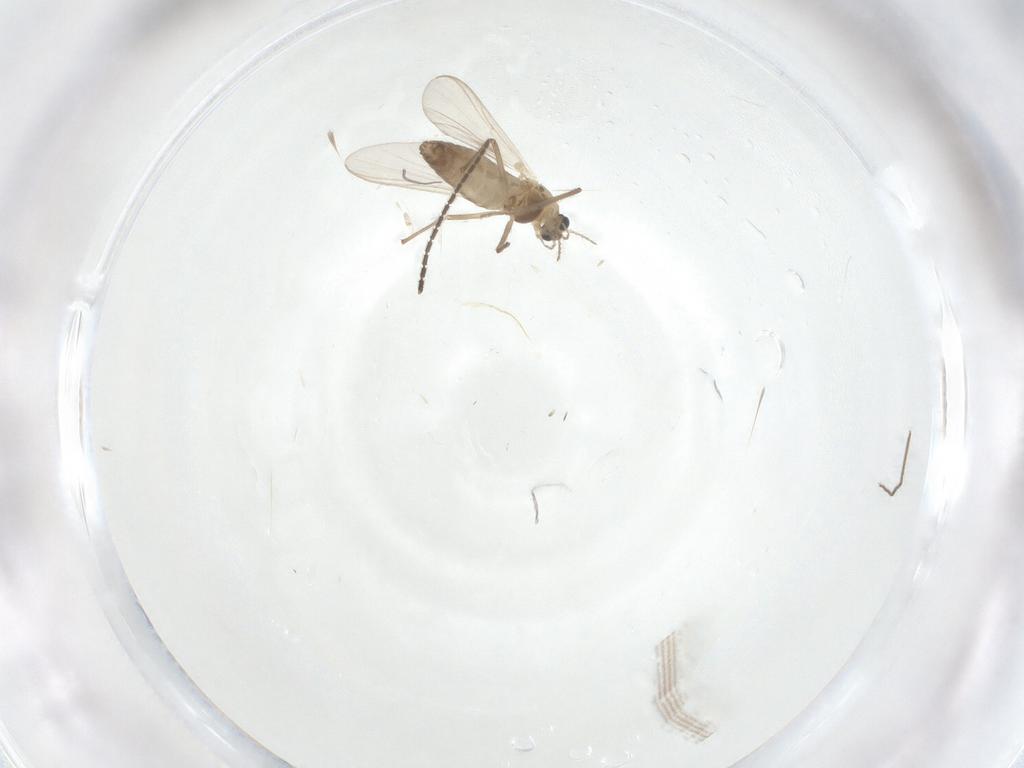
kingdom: Animalia
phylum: Arthropoda
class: Insecta
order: Diptera
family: Chironomidae
